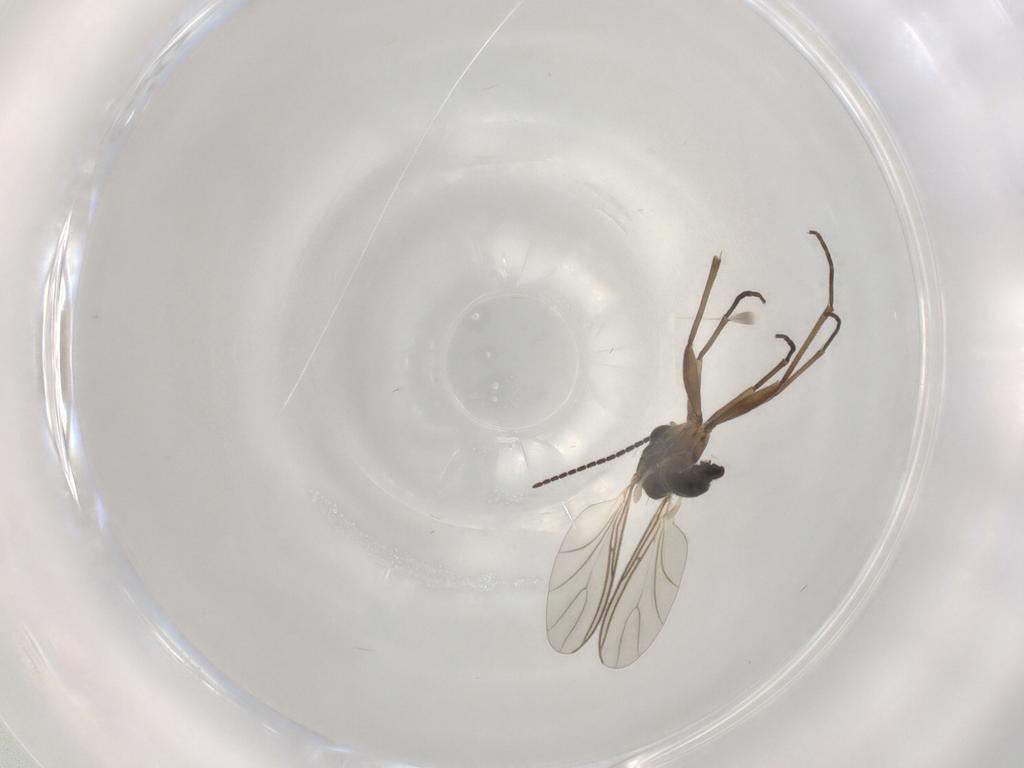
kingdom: Animalia
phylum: Arthropoda
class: Insecta
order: Diptera
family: Sciaridae
